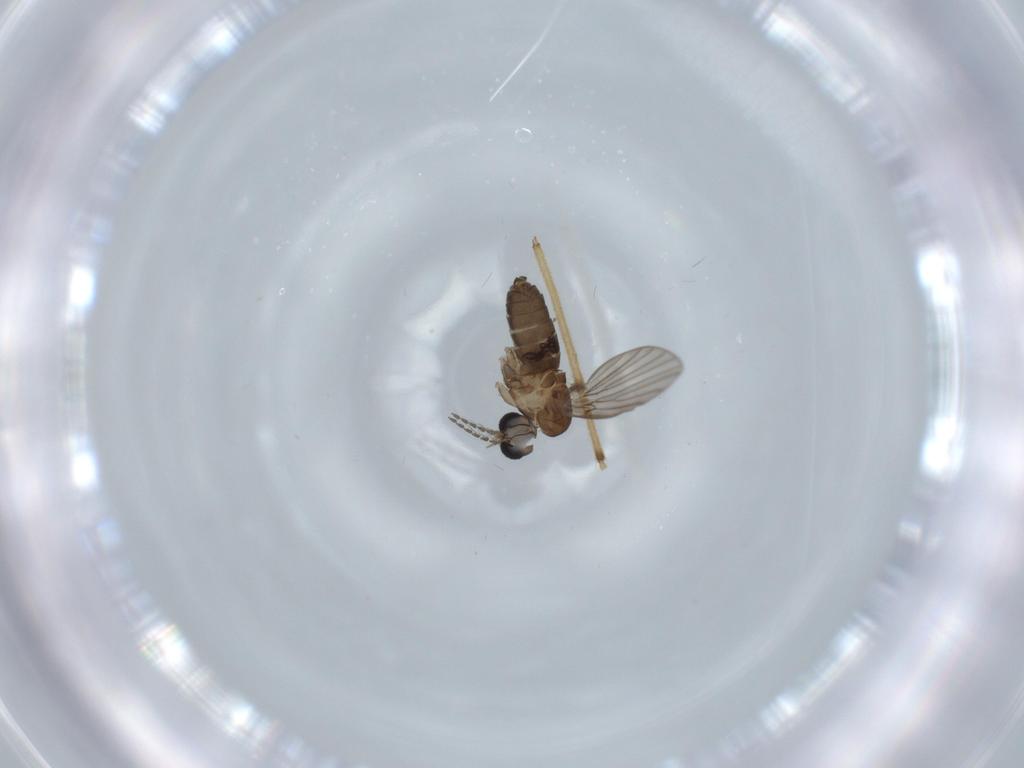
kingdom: Animalia
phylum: Arthropoda
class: Insecta
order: Diptera
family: Psychodidae
